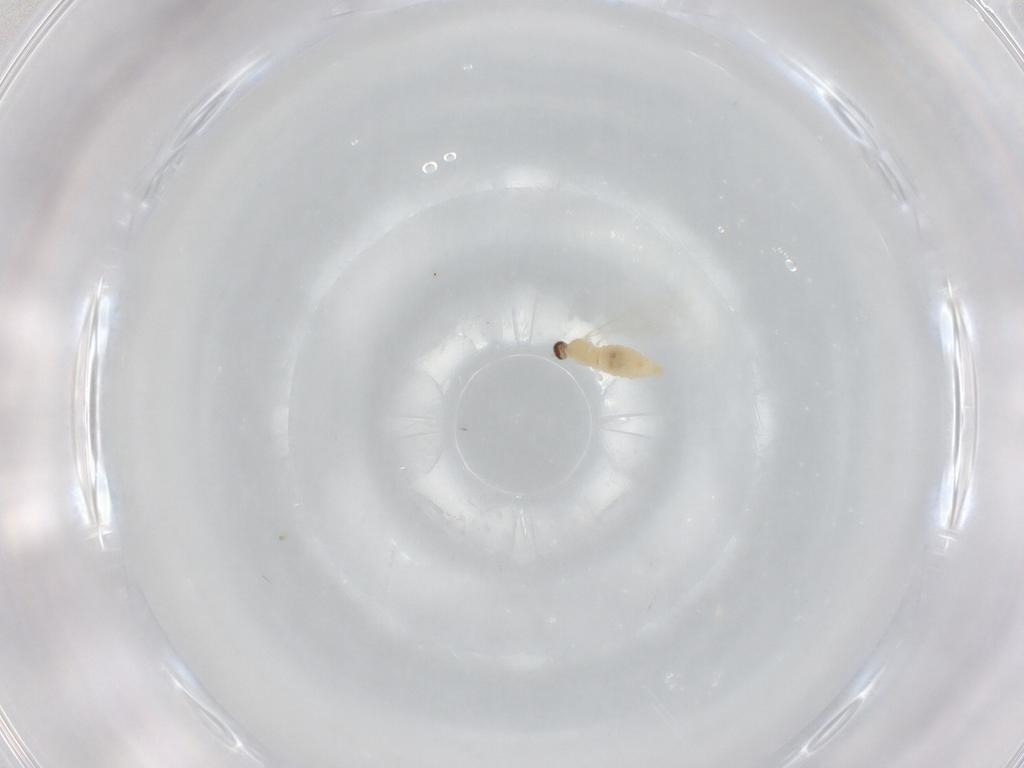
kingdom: Animalia
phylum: Arthropoda
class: Insecta
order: Diptera
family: Cecidomyiidae
